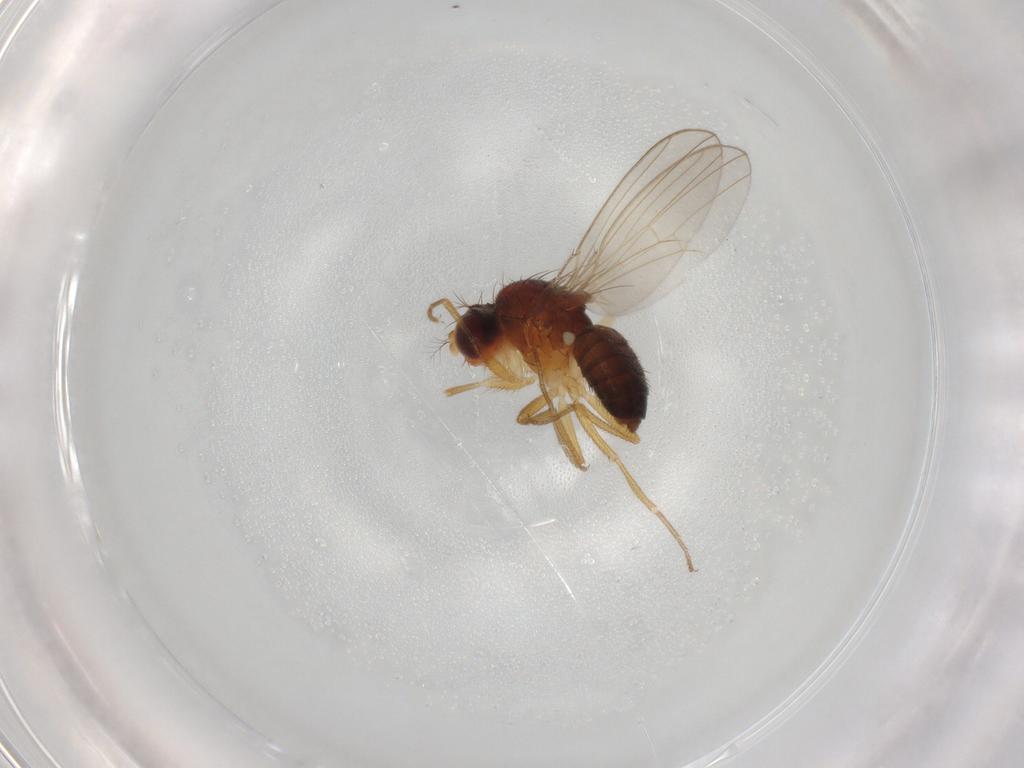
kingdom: Animalia
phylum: Arthropoda
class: Insecta
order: Diptera
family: Drosophilidae
